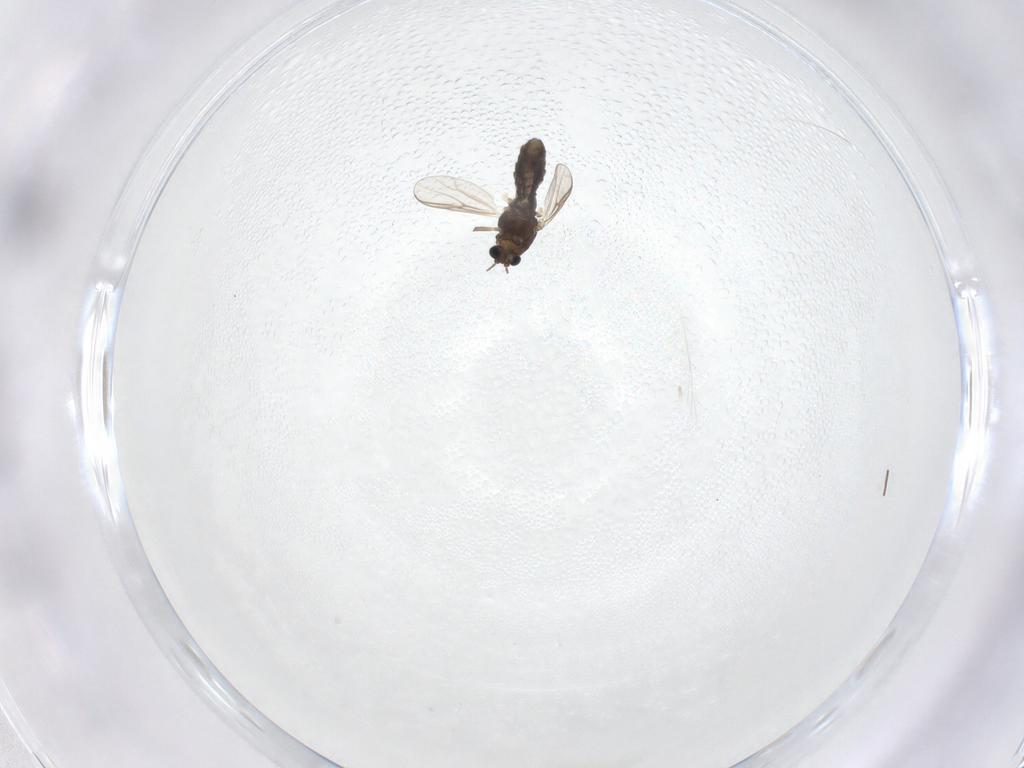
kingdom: Animalia
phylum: Arthropoda
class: Insecta
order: Diptera
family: Chironomidae
